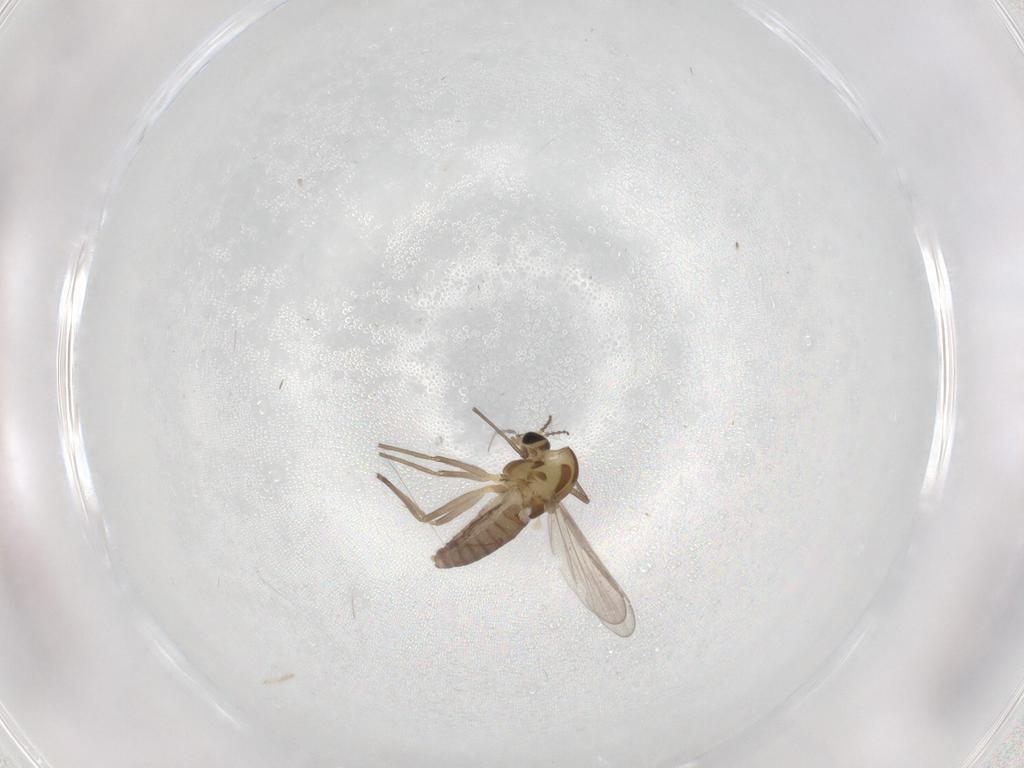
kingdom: Animalia
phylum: Arthropoda
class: Insecta
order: Diptera
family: Chironomidae
